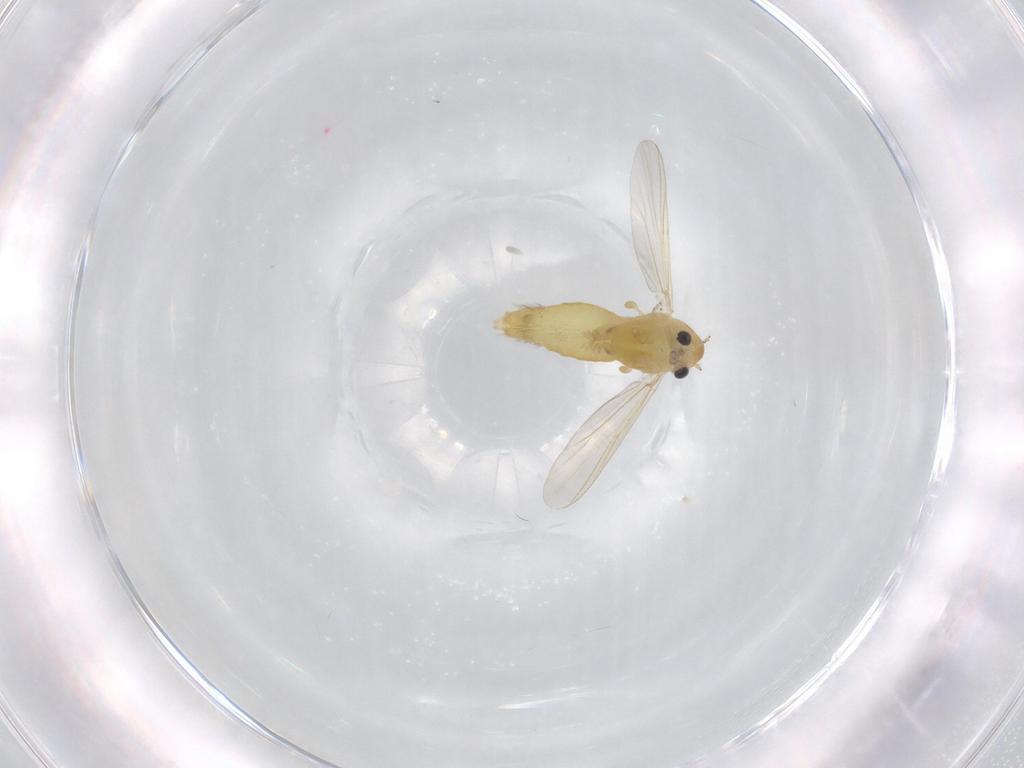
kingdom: Animalia
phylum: Arthropoda
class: Insecta
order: Diptera
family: Chironomidae
